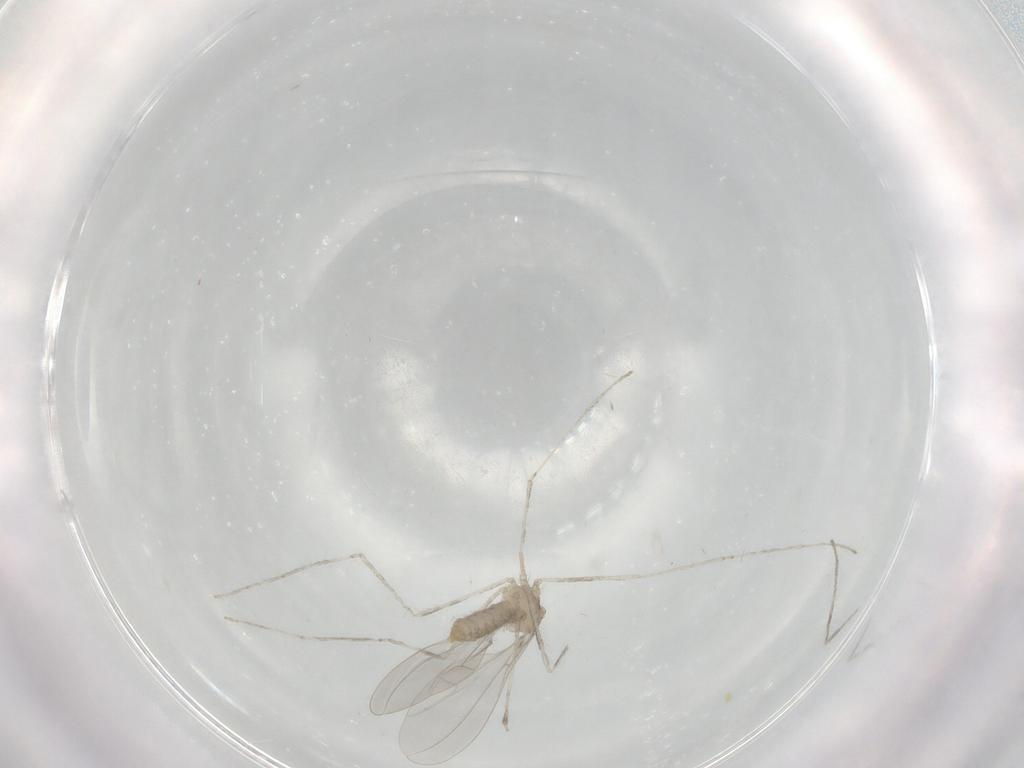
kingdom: Animalia
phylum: Arthropoda
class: Insecta
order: Diptera
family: Cecidomyiidae
